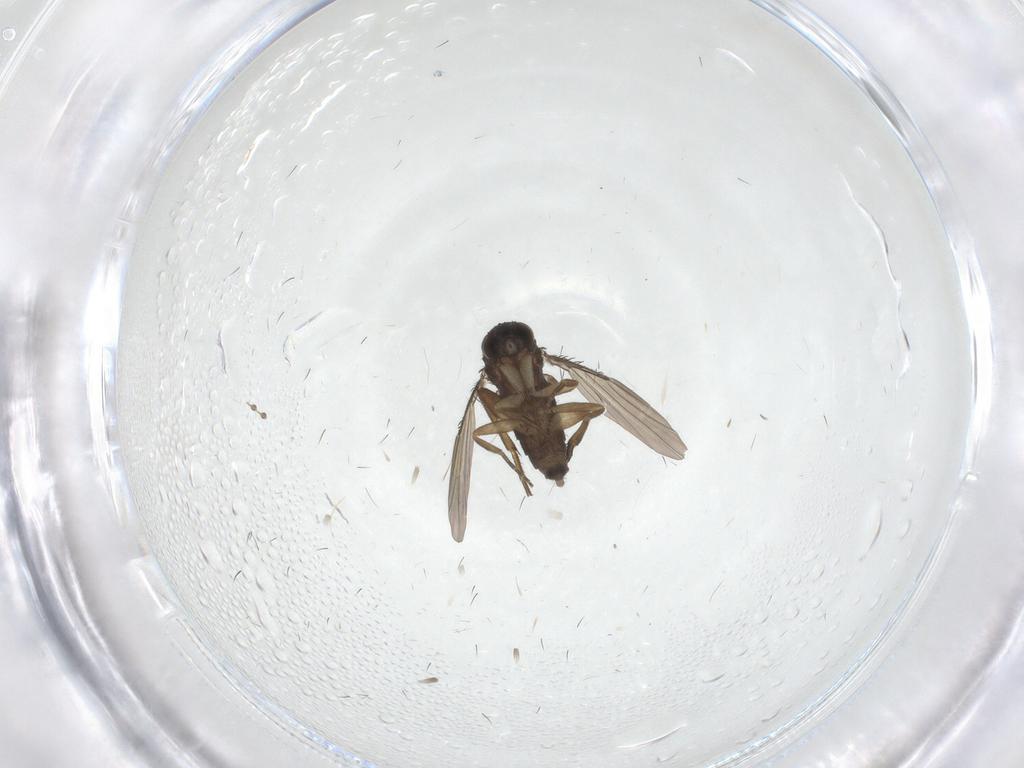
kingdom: Animalia
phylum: Arthropoda
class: Insecta
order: Diptera
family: Phoridae
